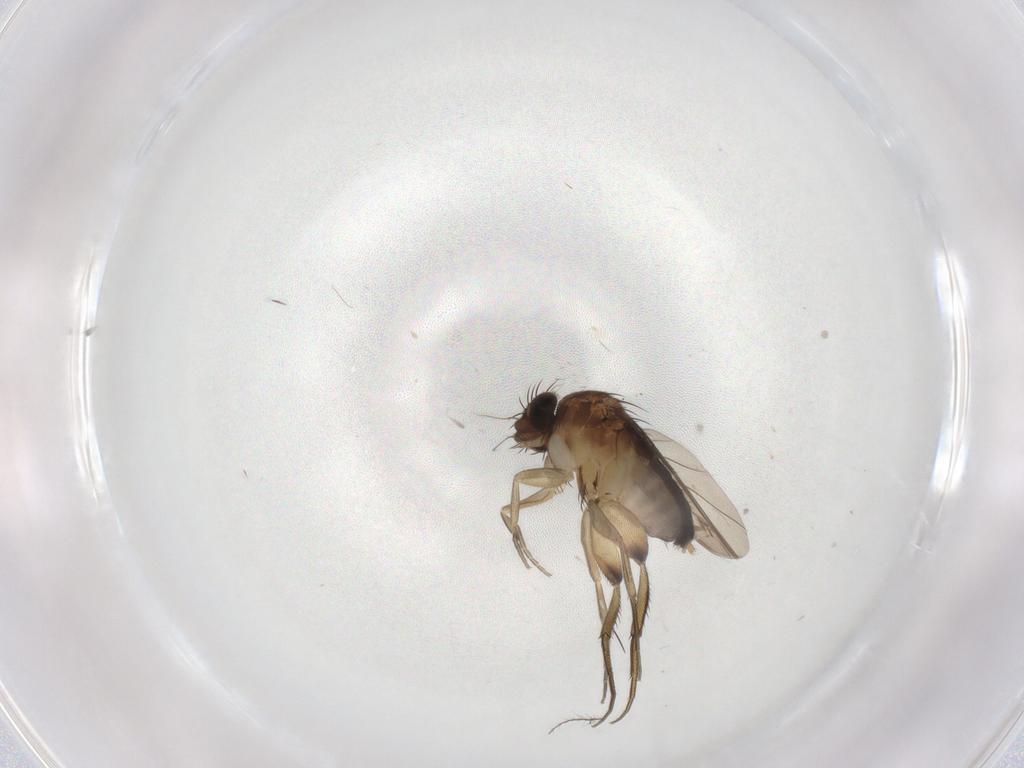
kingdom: Animalia
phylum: Arthropoda
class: Insecta
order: Diptera
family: Phoridae
